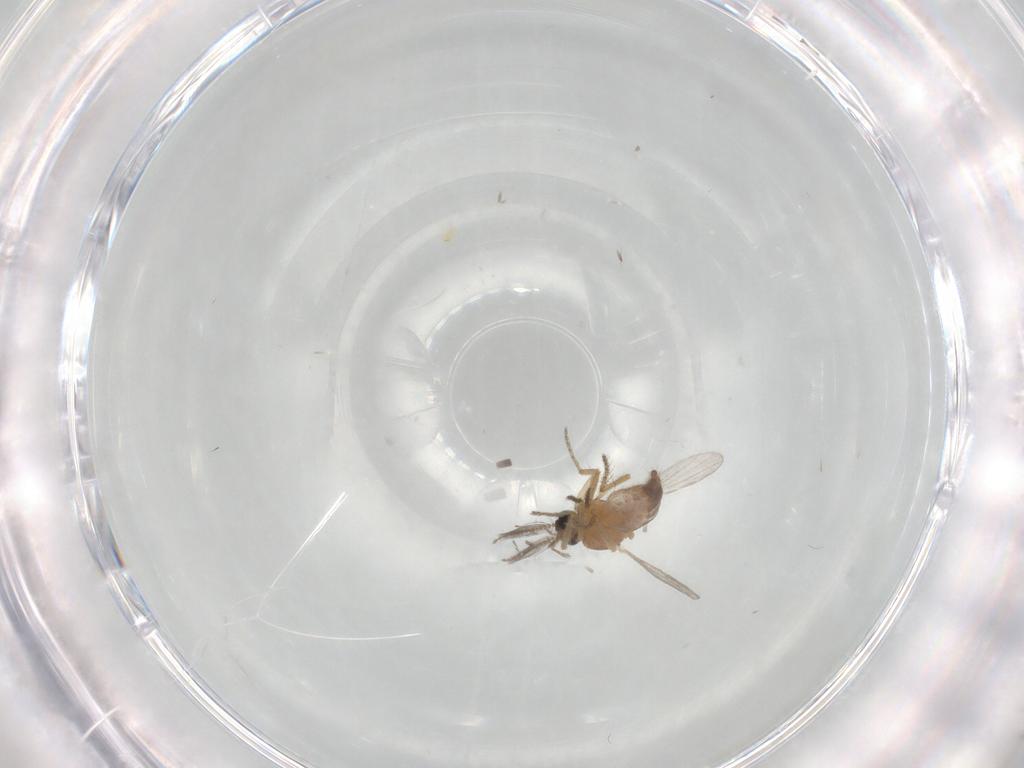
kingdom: Animalia
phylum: Arthropoda
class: Insecta
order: Diptera
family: Ceratopogonidae
